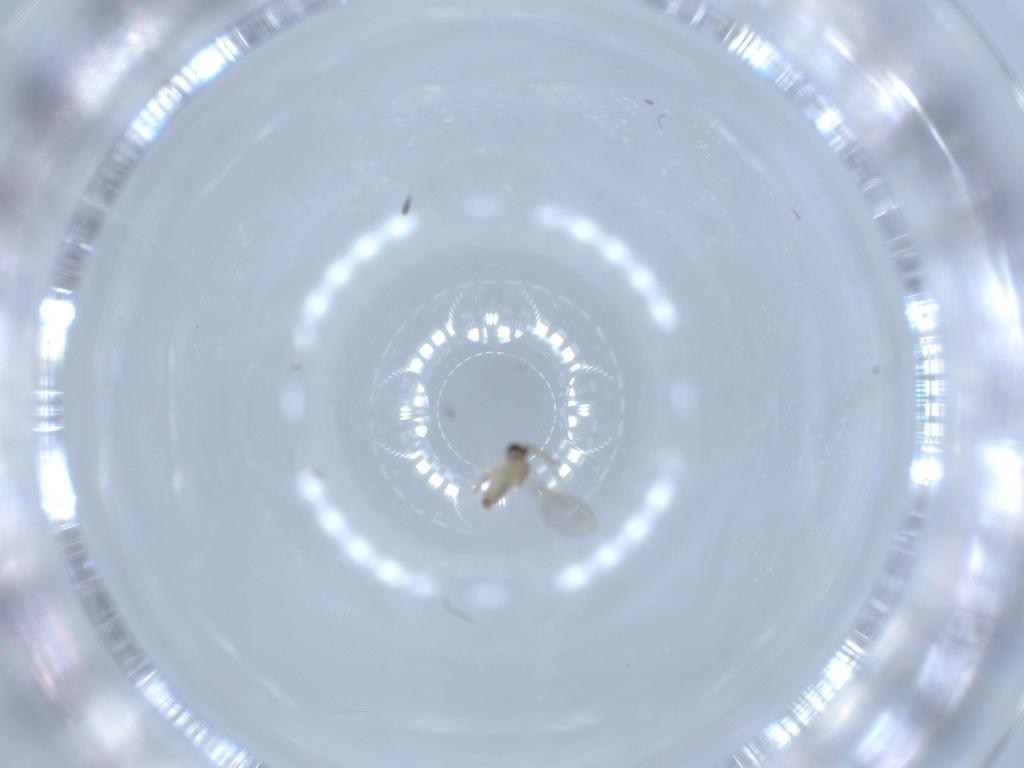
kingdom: Animalia
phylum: Arthropoda
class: Insecta
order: Diptera
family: Cecidomyiidae
